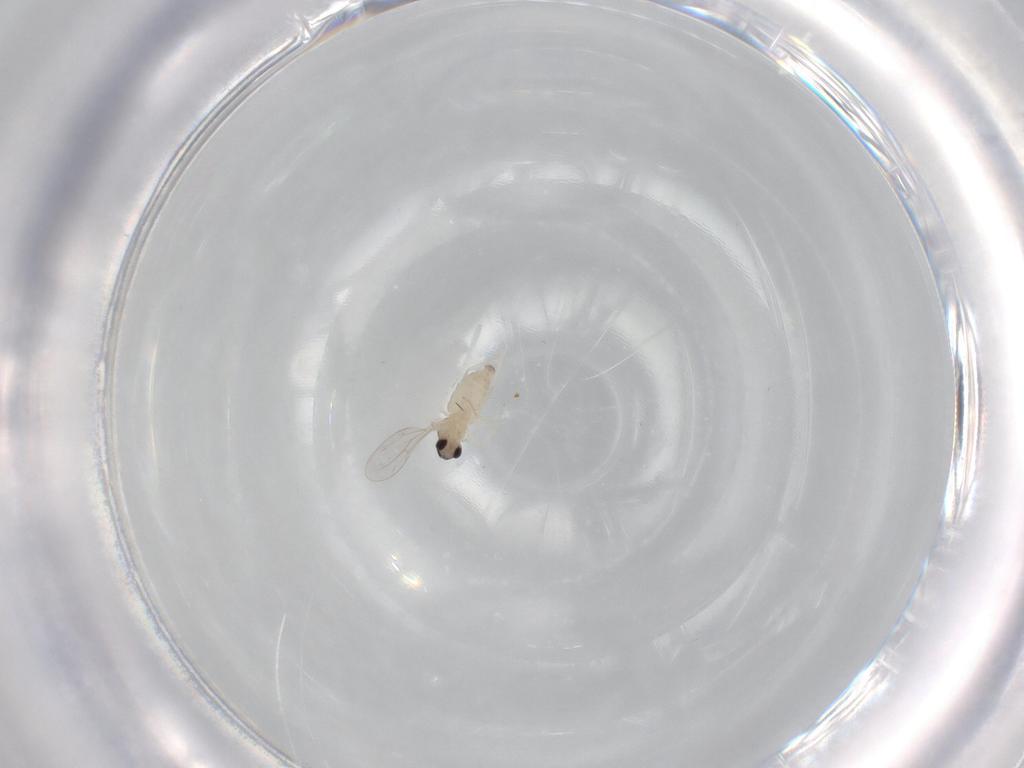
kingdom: Animalia
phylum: Arthropoda
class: Insecta
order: Diptera
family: Cecidomyiidae
